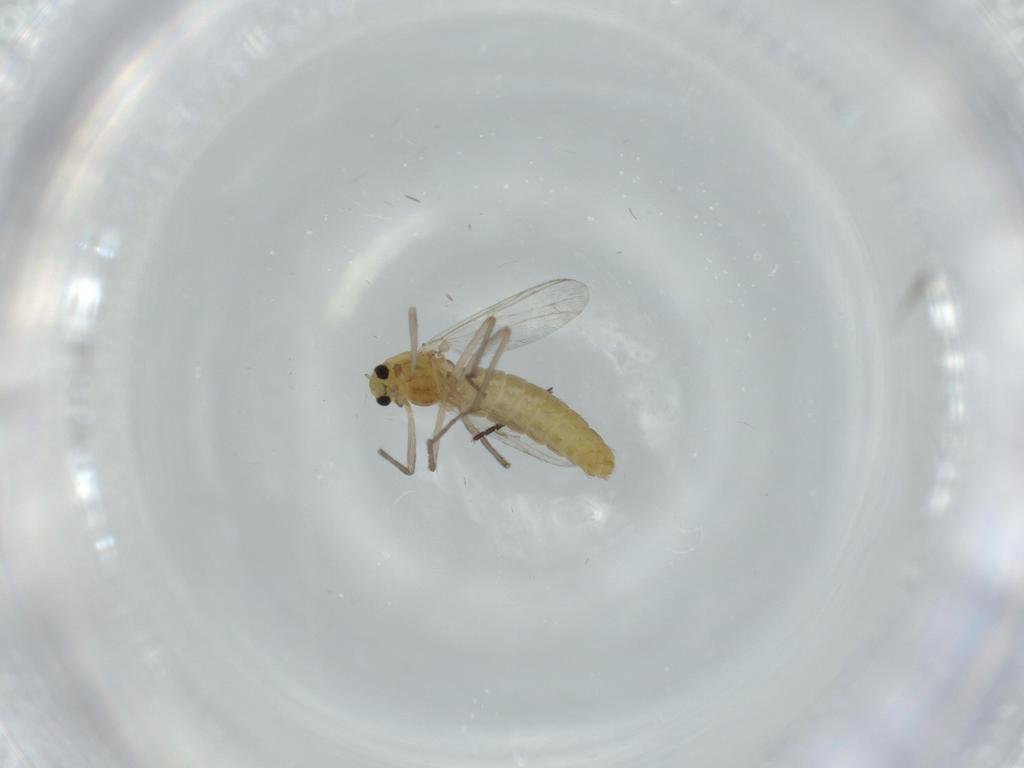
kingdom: Animalia
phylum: Arthropoda
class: Insecta
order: Diptera
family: Chironomidae
